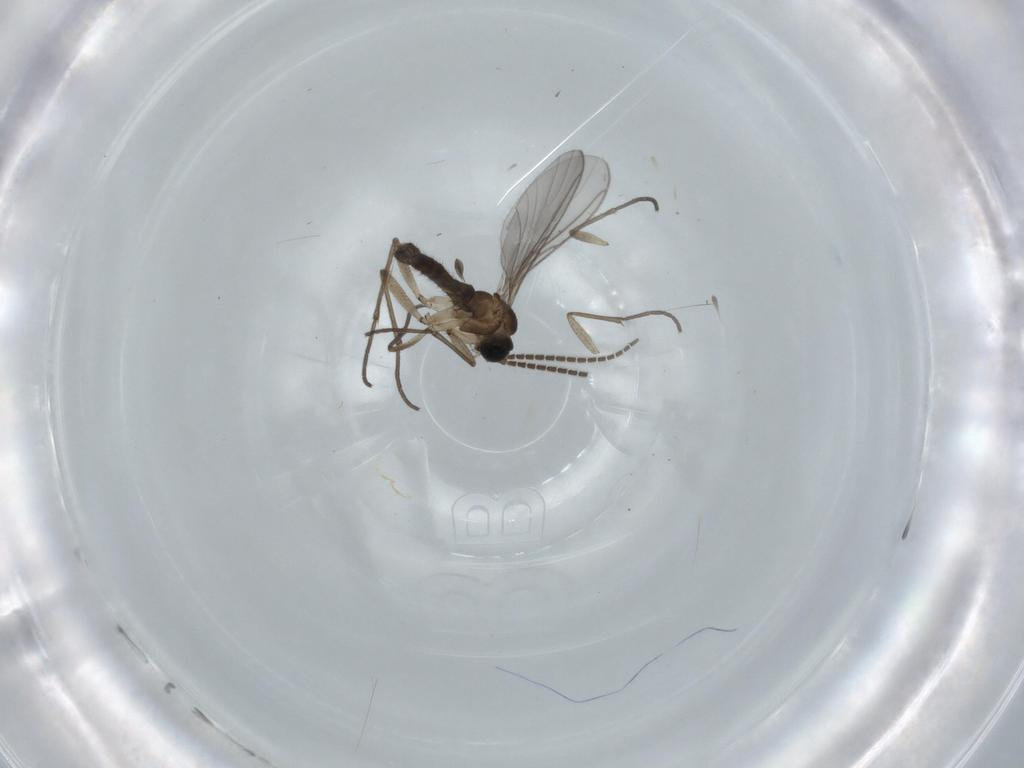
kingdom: Animalia
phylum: Arthropoda
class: Insecta
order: Diptera
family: Sciaridae
